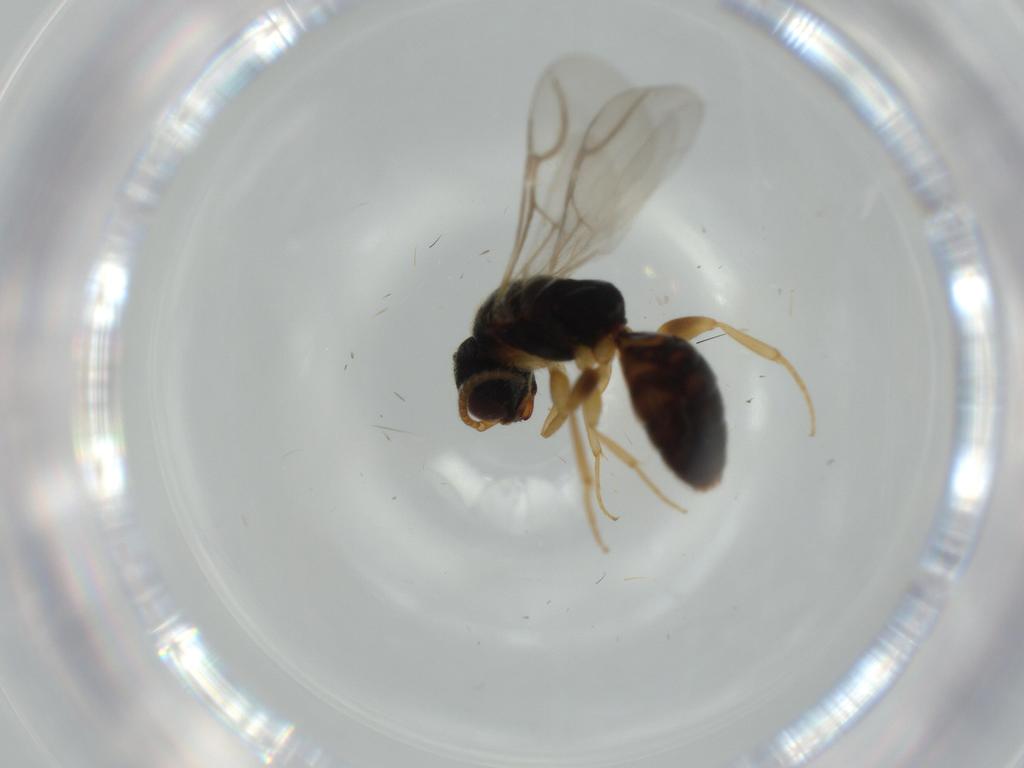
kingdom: Animalia
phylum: Arthropoda
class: Insecta
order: Hymenoptera
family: Bethylidae
